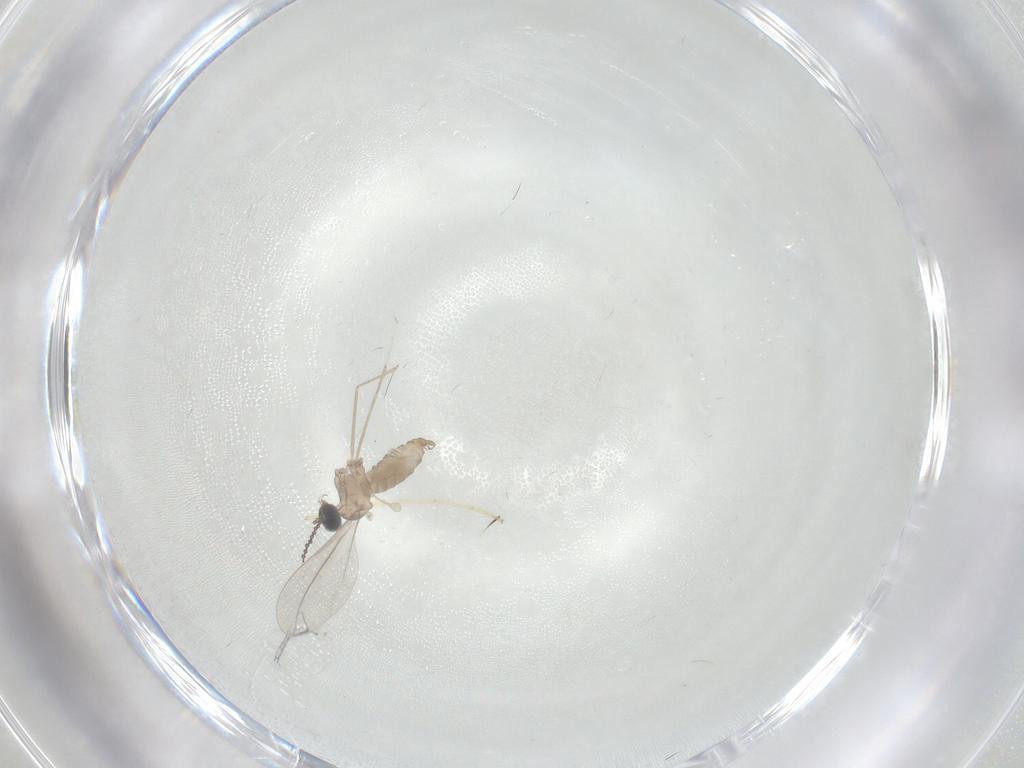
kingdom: Animalia
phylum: Arthropoda
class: Insecta
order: Diptera
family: Chironomidae
